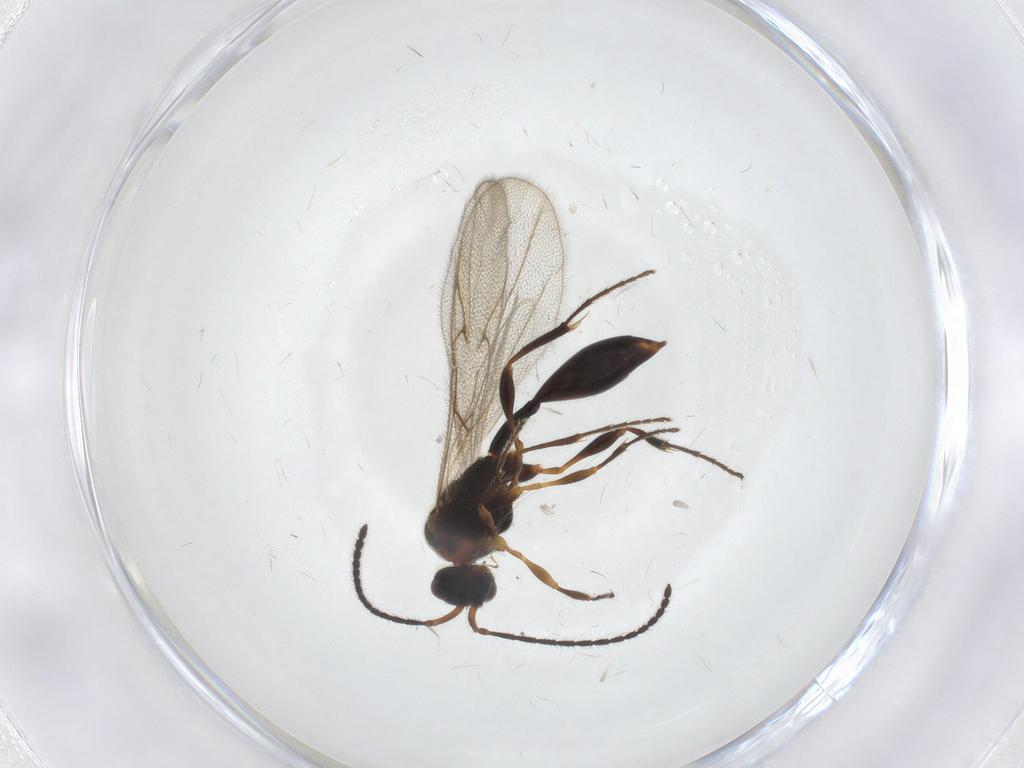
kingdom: Animalia
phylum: Arthropoda
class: Insecta
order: Hymenoptera
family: Diapriidae
